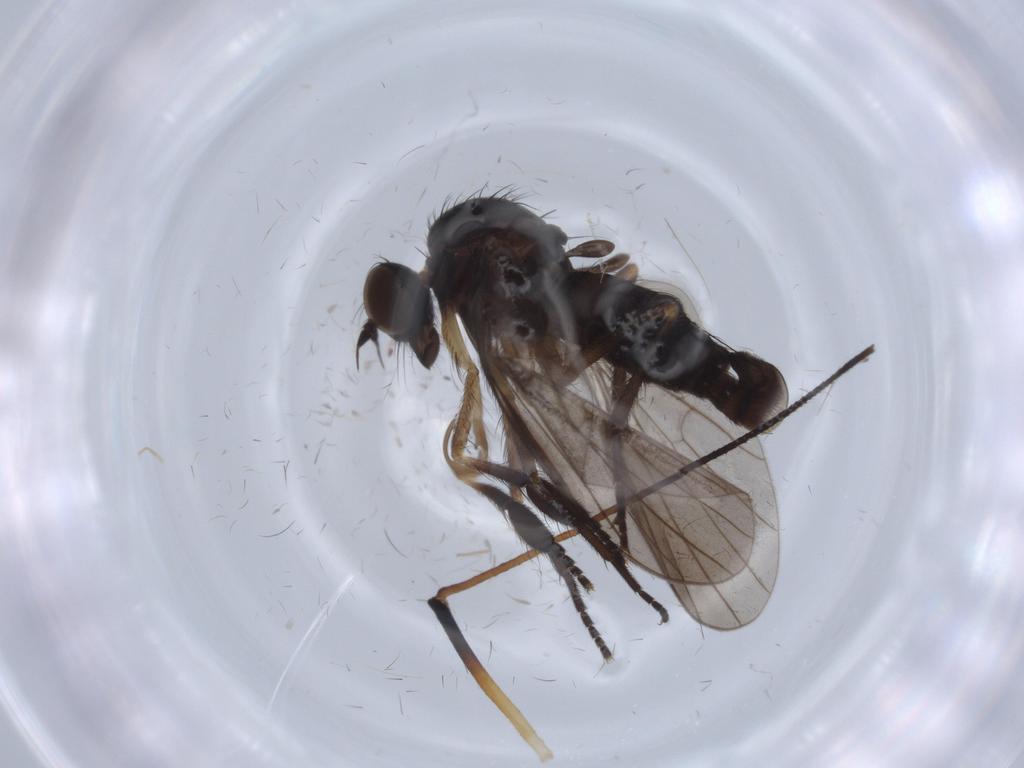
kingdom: Animalia
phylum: Arthropoda
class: Insecta
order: Diptera
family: Empididae
